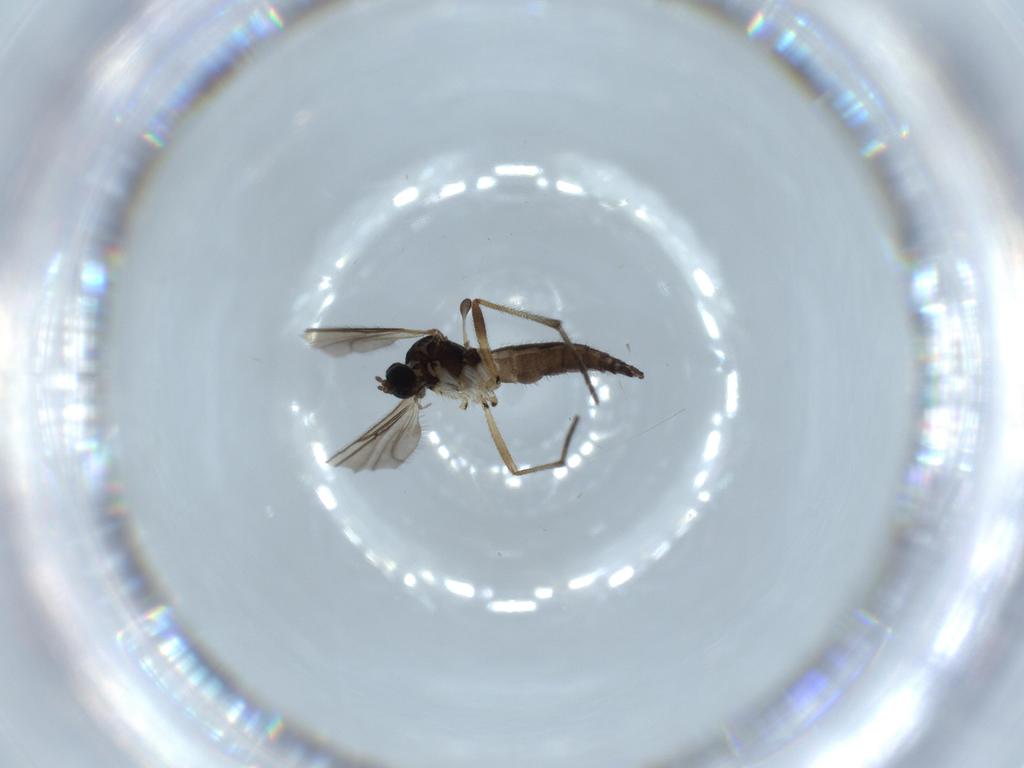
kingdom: Animalia
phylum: Arthropoda
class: Insecta
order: Diptera
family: Sciaridae
